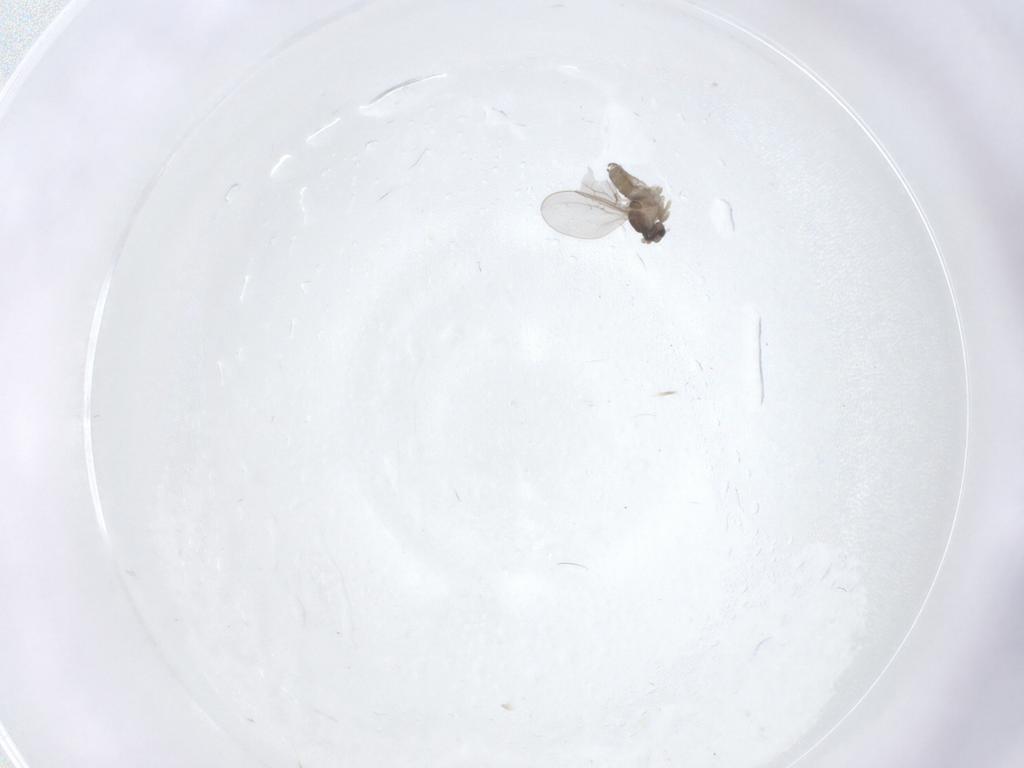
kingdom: Animalia
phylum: Arthropoda
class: Insecta
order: Diptera
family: Cecidomyiidae
